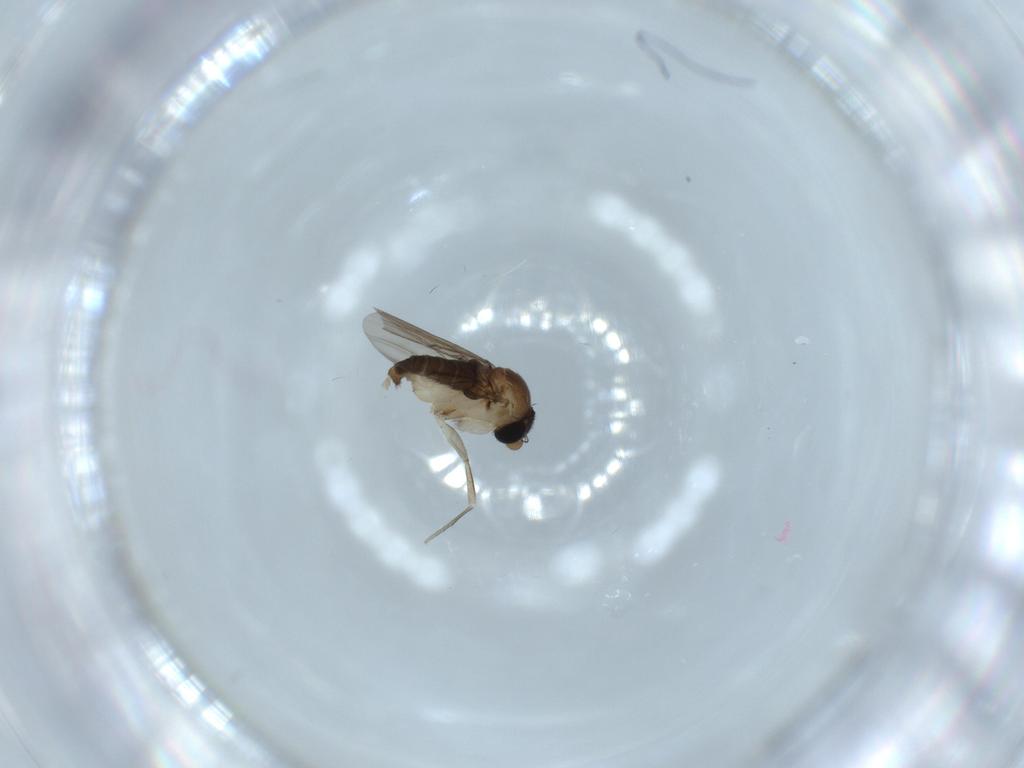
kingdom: Animalia
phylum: Arthropoda
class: Insecta
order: Diptera
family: Phoridae
